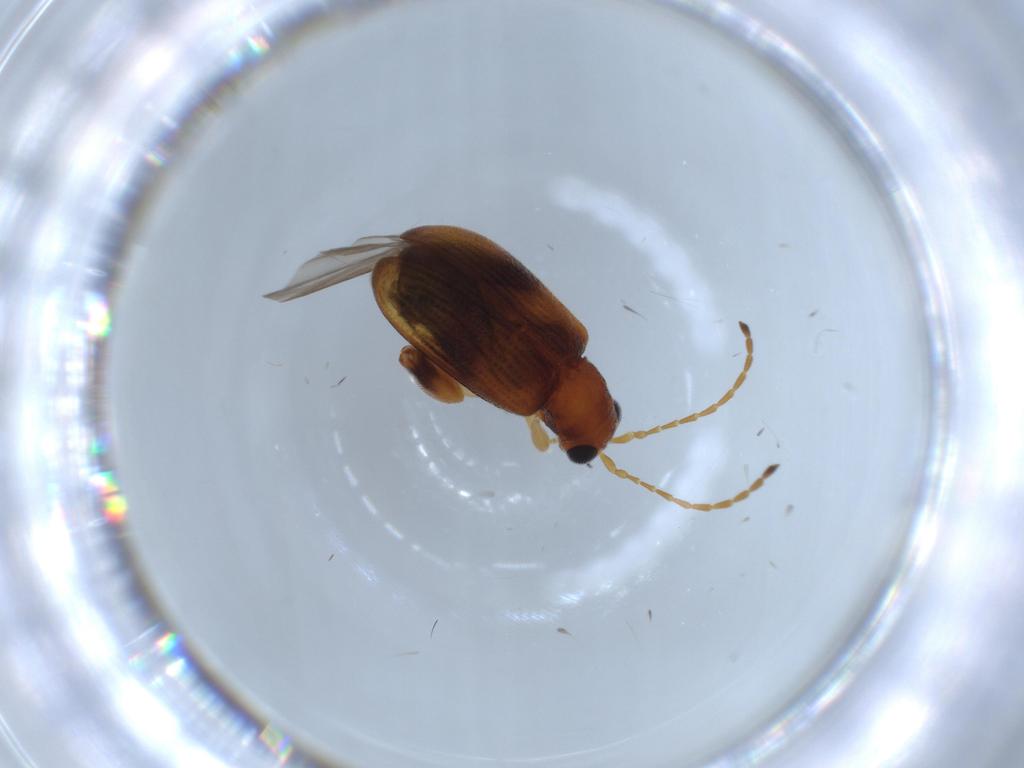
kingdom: Animalia
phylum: Arthropoda
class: Insecta
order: Coleoptera
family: Chrysomelidae
